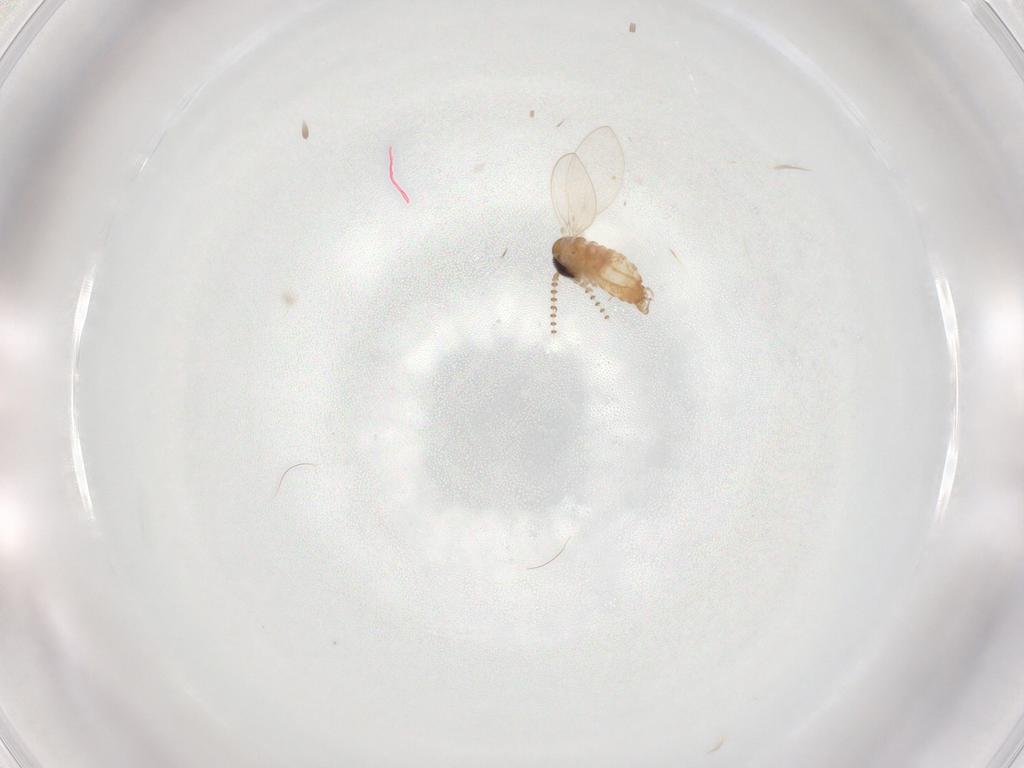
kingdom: Animalia
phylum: Arthropoda
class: Insecta
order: Diptera
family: Psychodidae
